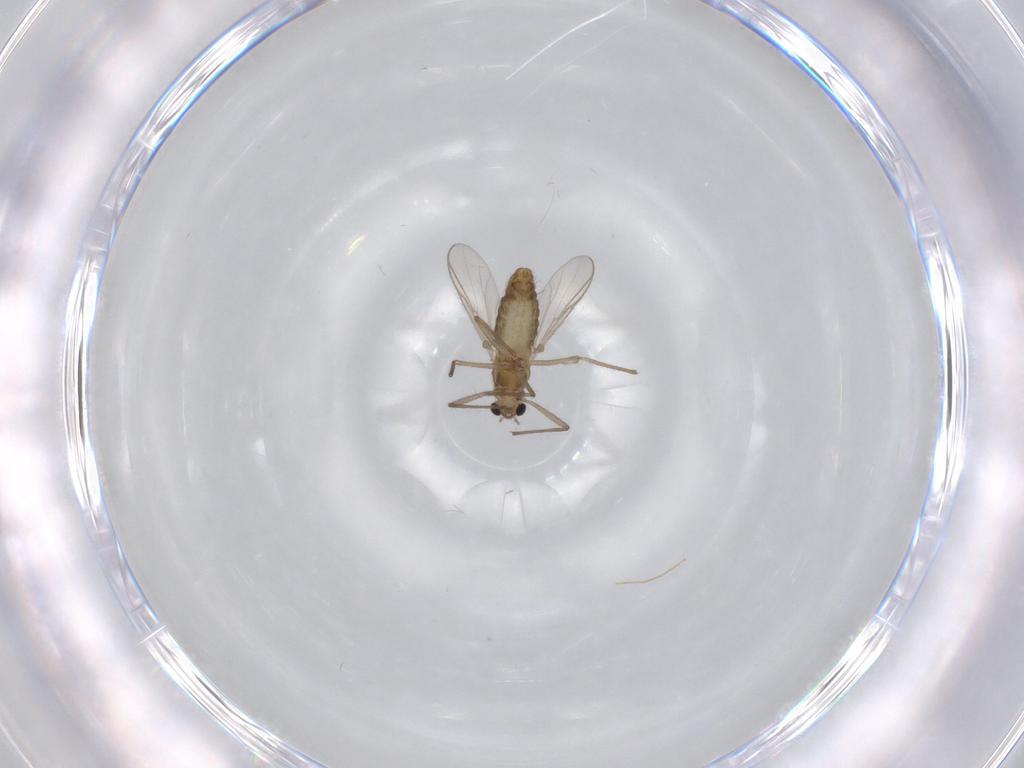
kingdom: Animalia
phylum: Arthropoda
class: Insecta
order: Diptera
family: Chironomidae
